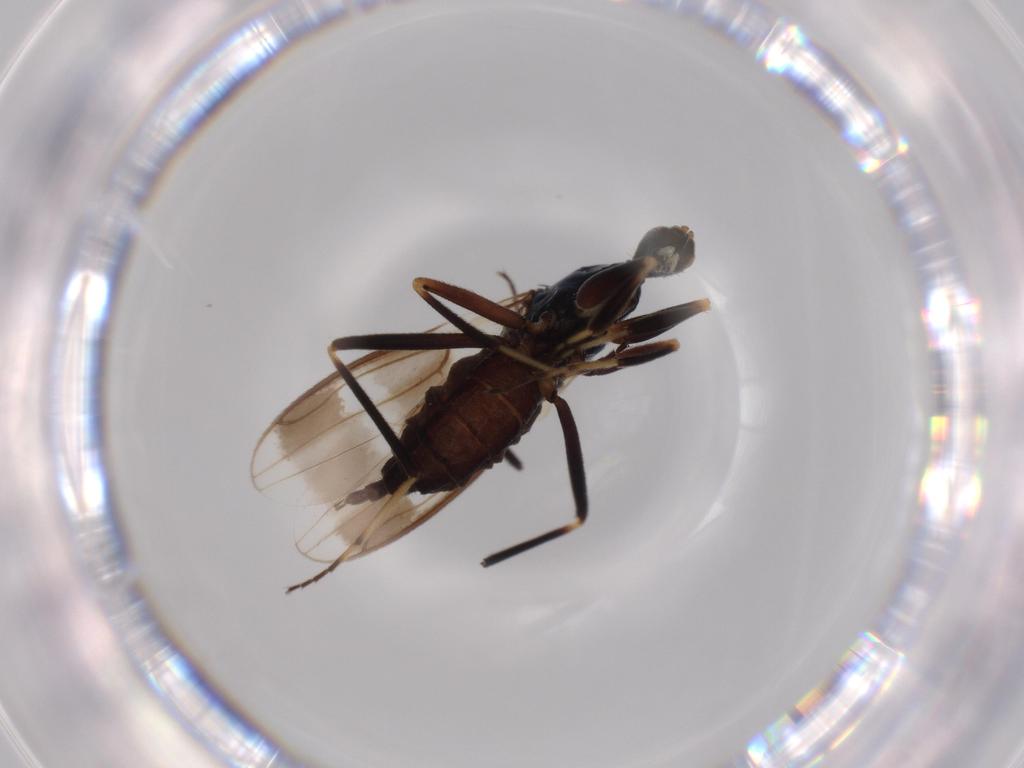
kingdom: Animalia
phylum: Arthropoda
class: Insecta
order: Diptera
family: Hybotidae
